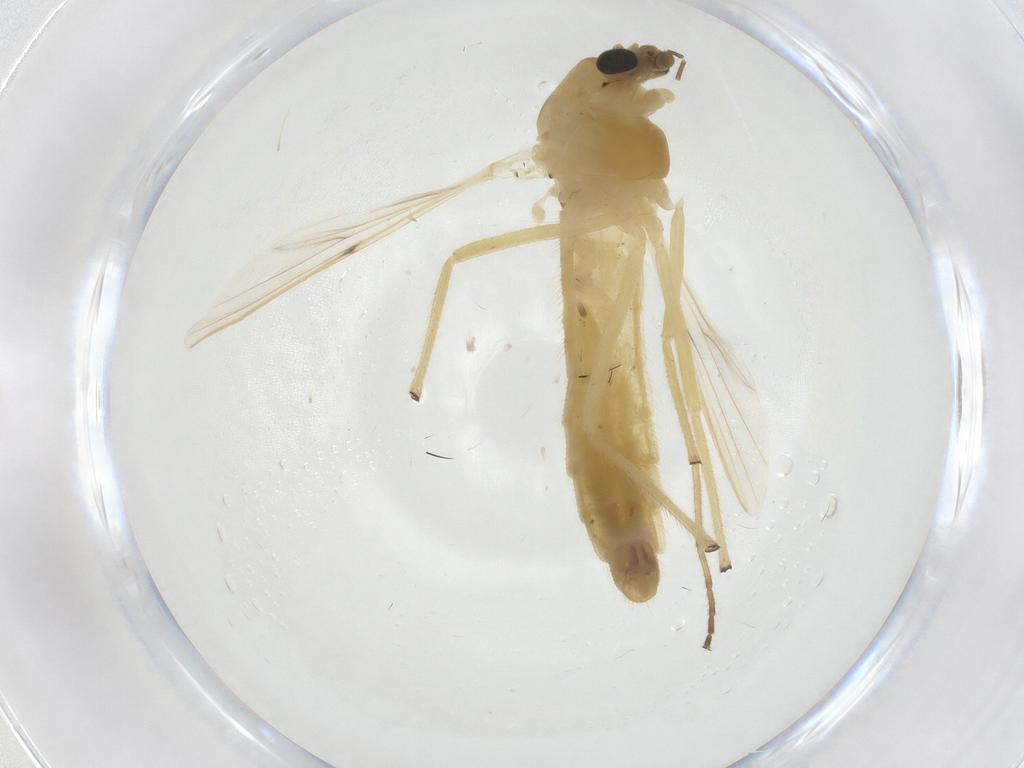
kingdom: Animalia
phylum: Arthropoda
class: Insecta
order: Diptera
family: Chironomidae
